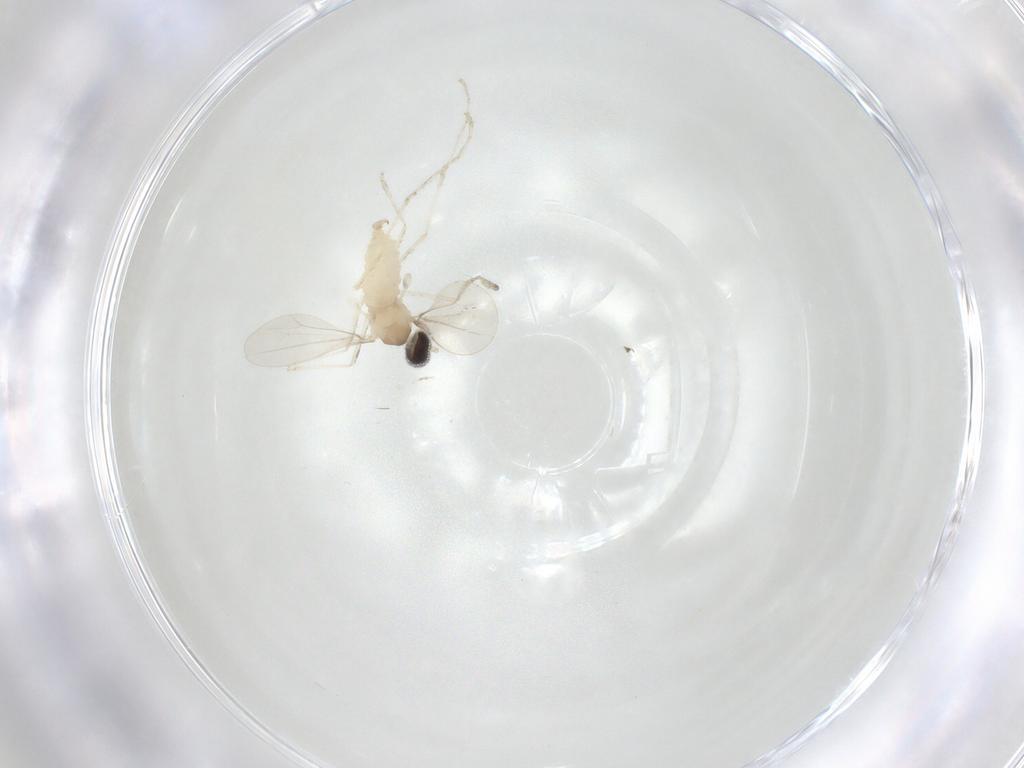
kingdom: Animalia
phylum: Arthropoda
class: Insecta
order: Diptera
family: Cecidomyiidae
